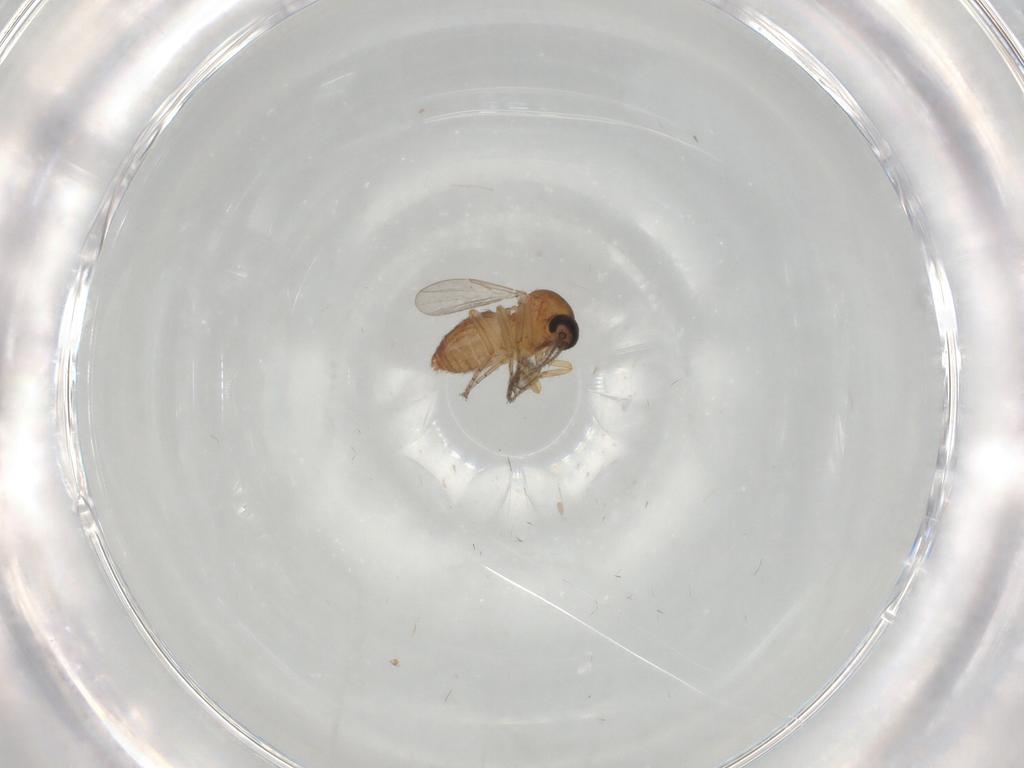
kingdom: Animalia
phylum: Arthropoda
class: Insecta
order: Diptera
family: Ceratopogonidae
